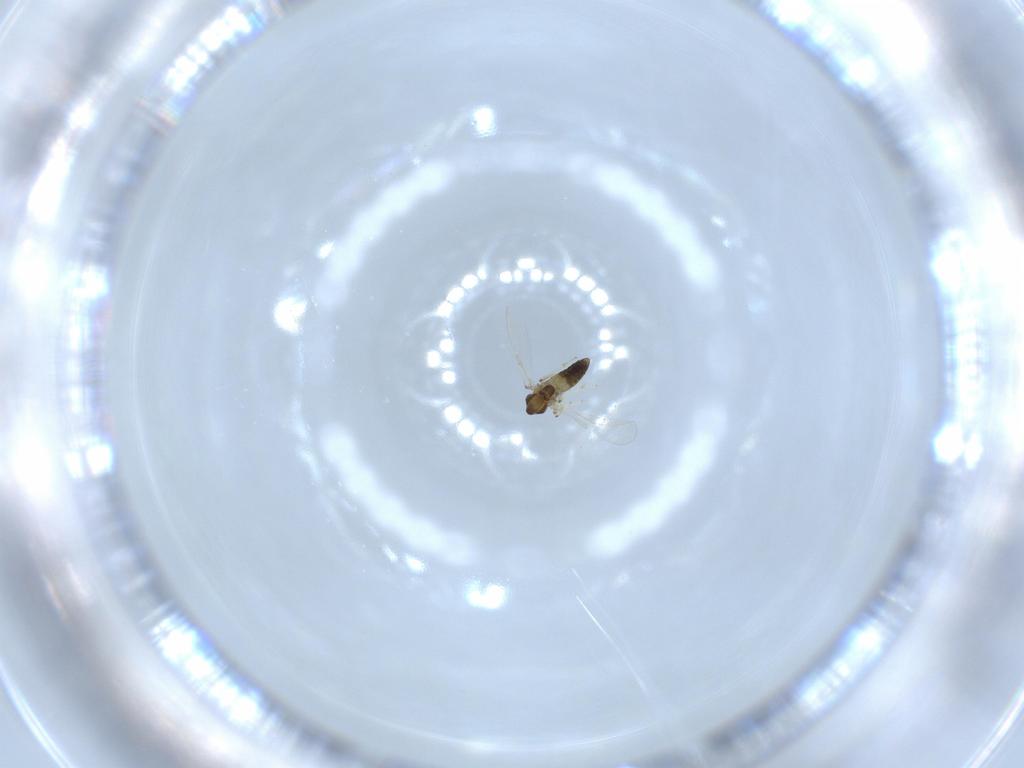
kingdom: Animalia
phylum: Arthropoda
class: Insecta
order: Diptera
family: Chironomidae
